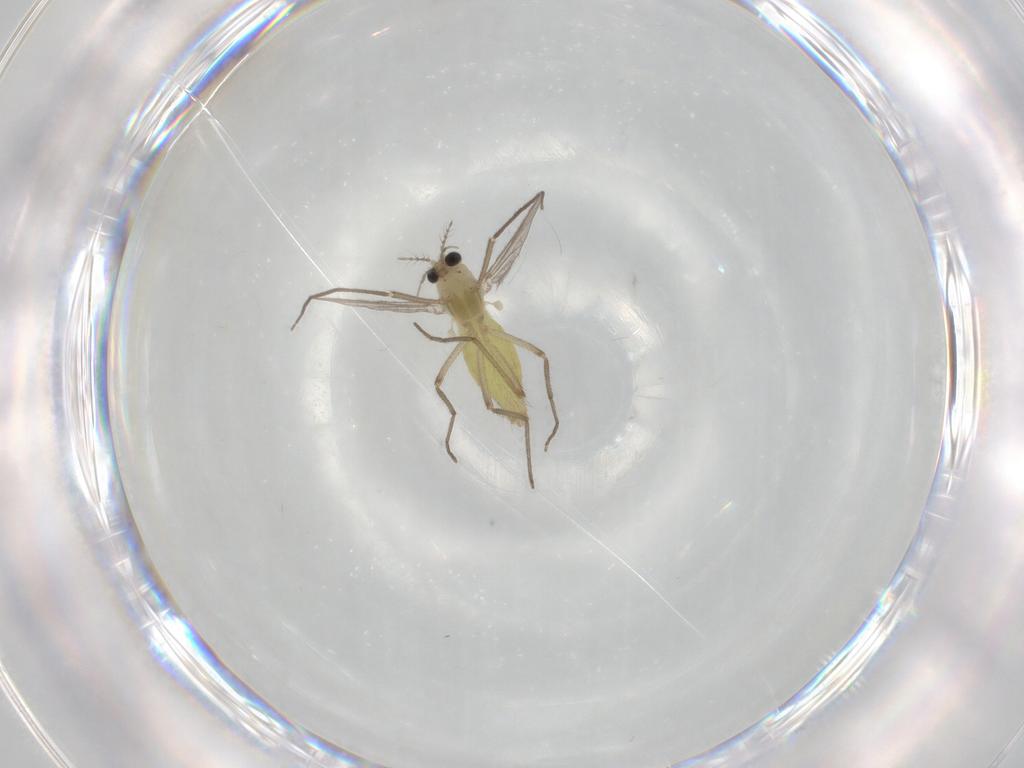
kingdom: Animalia
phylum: Arthropoda
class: Insecta
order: Diptera
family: Chironomidae
